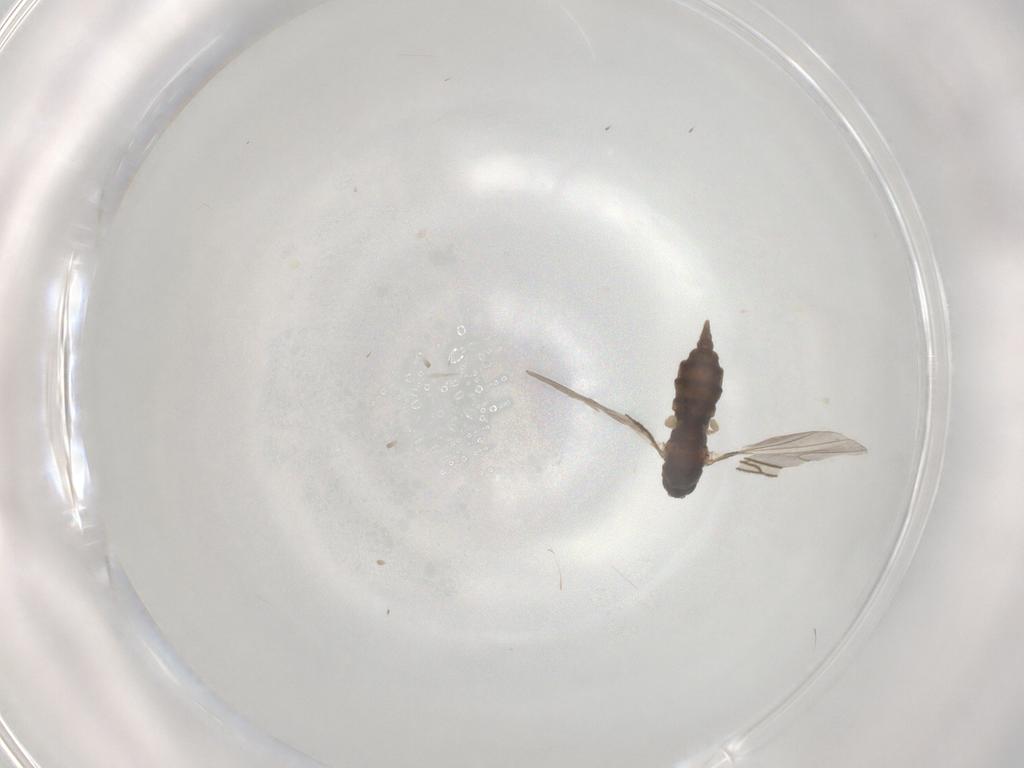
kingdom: Animalia
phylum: Arthropoda
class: Insecta
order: Diptera
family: Sciaridae
